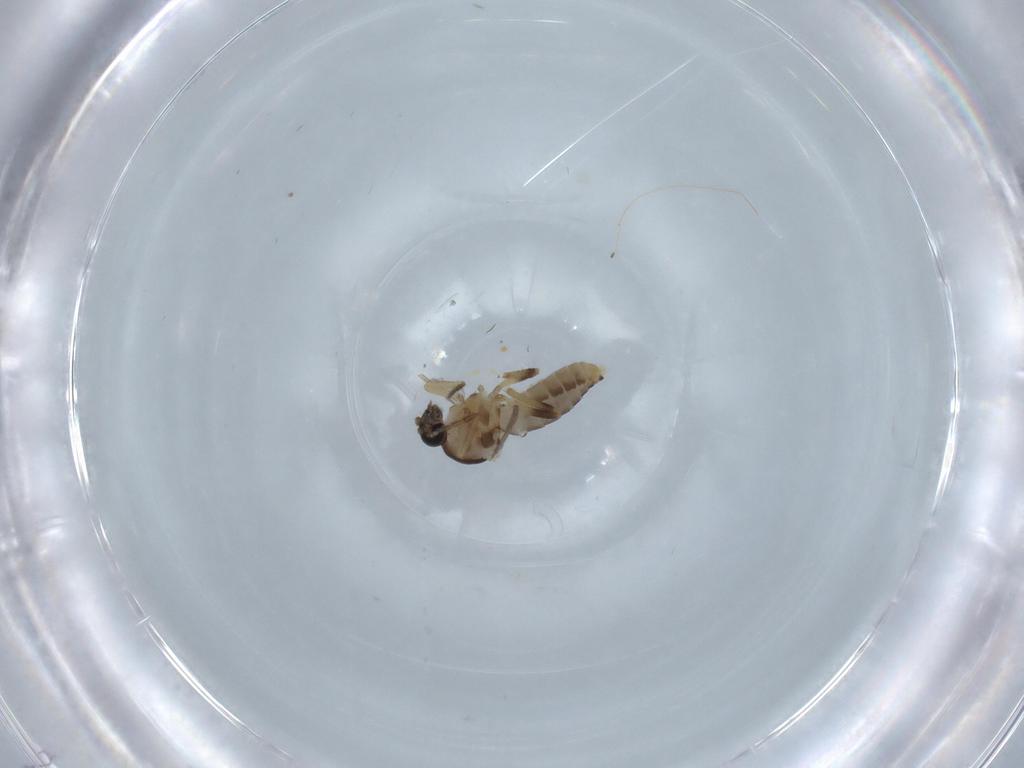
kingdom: Animalia
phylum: Arthropoda
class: Insecta
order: Diptera
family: Ceratopogonidae
